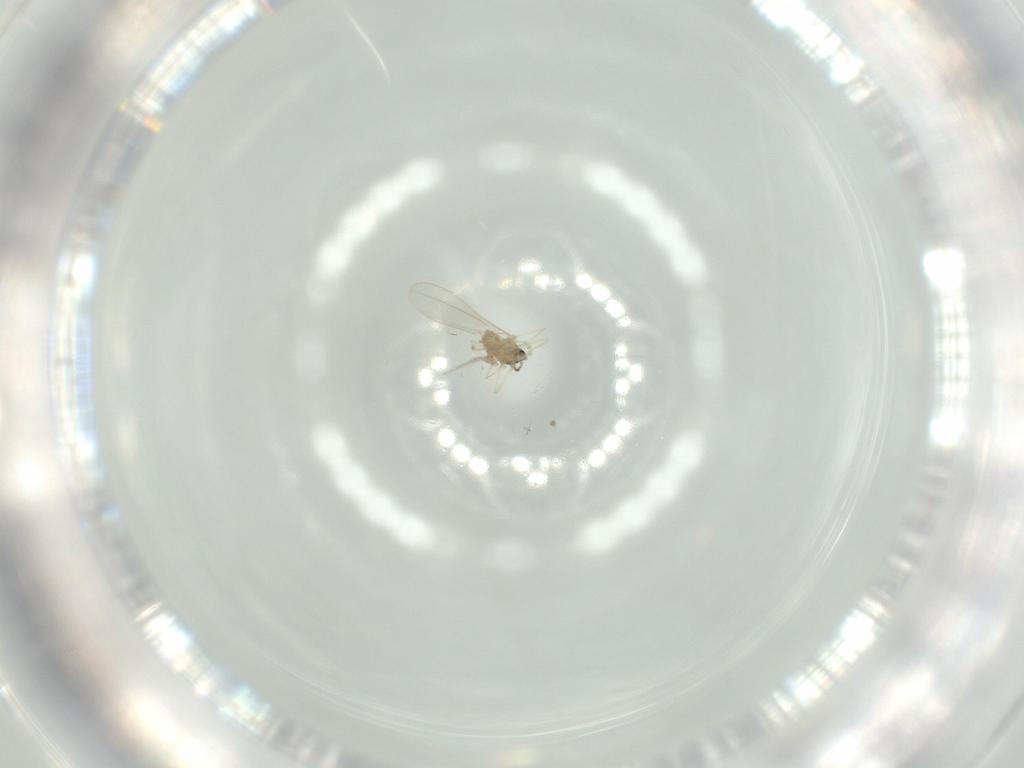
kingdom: Animalia
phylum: Arthropoda
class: Insecta
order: Diptera
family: Cecidomyiidae
